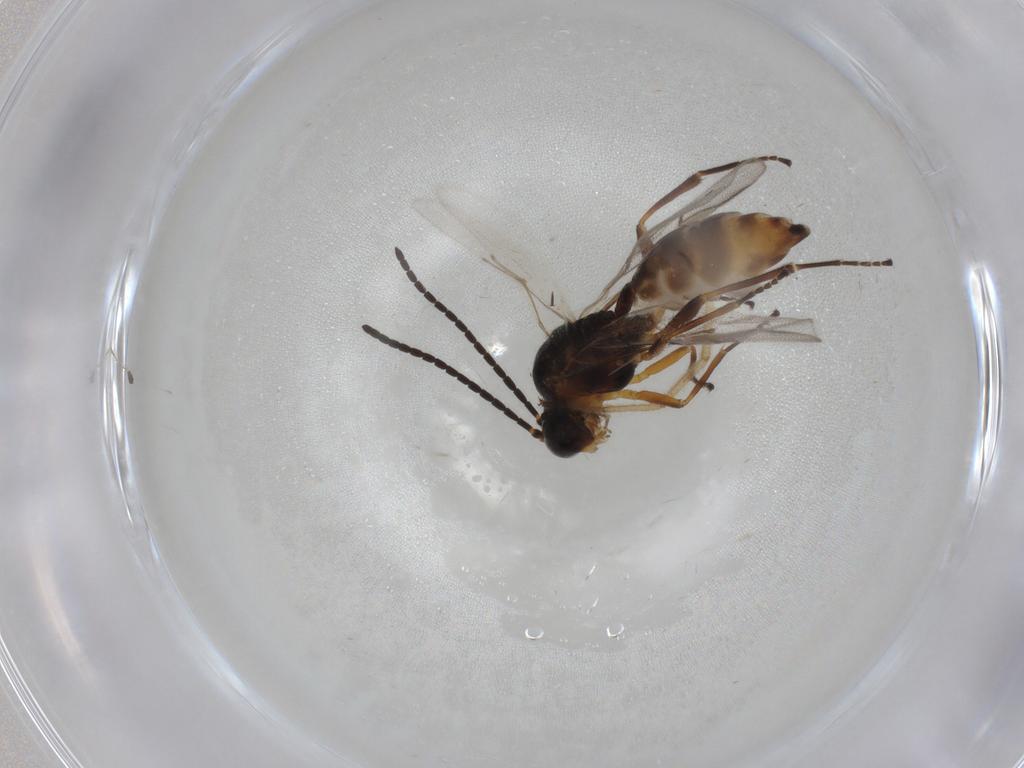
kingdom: Animalia
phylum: Arthropoda
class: Insecta
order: Hymenoptera
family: Braconidae
